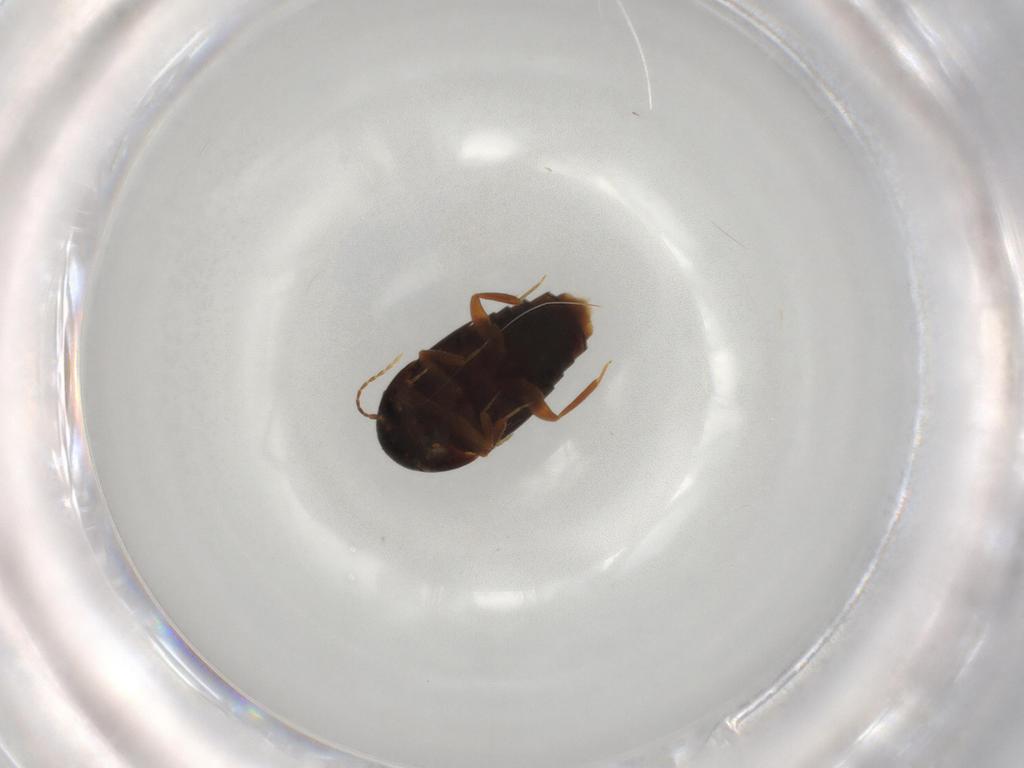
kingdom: Animalia
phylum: Arthropoda
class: Insecta
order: Coleoptera
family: Staphylinidae
